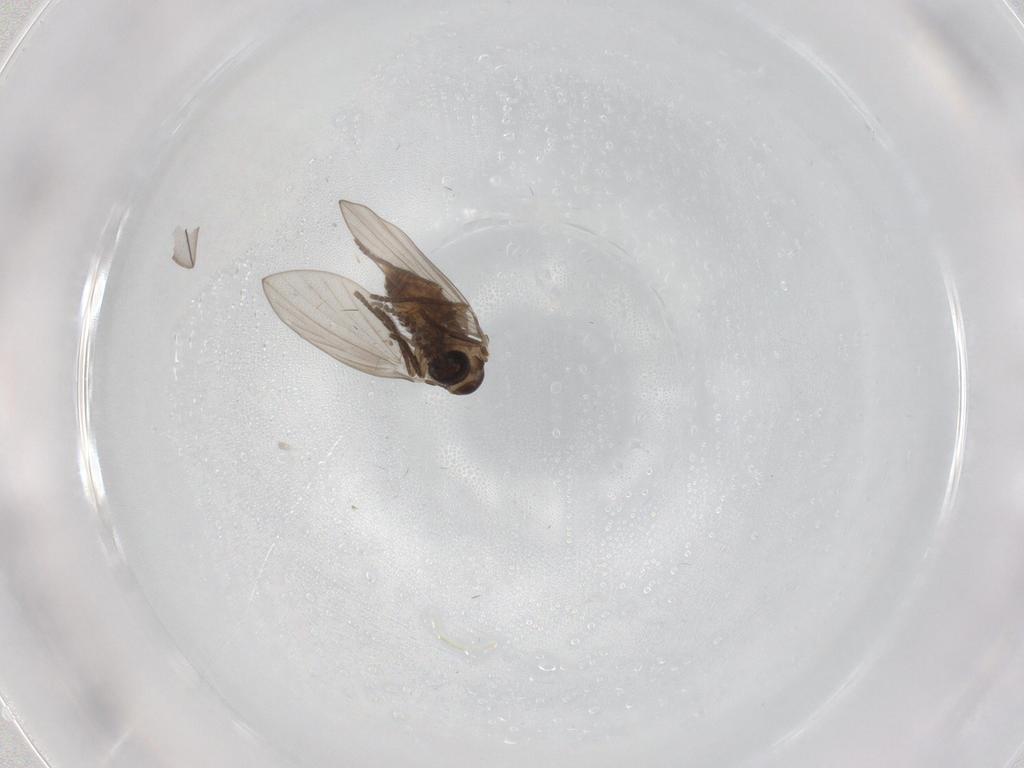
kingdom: Animalia
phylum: Arthropoda
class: Insecta
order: Diptera
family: Psychodidae
